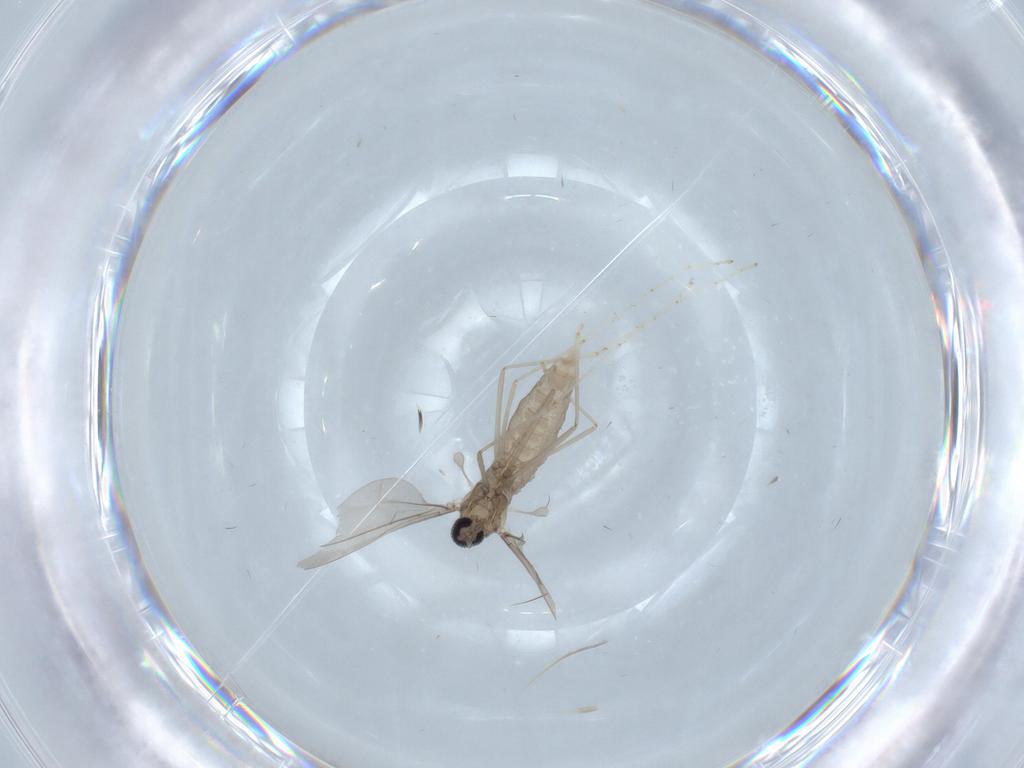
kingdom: Animalia
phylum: Arthropoda
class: Insecta
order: Diptera
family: Cecidomyiidae
